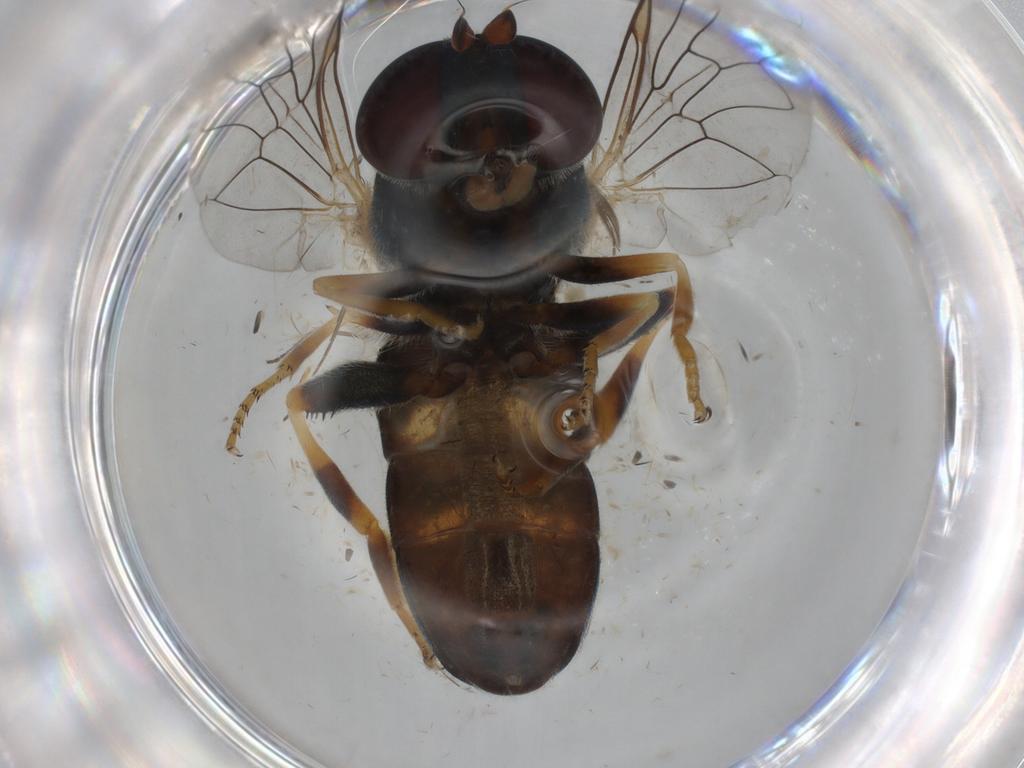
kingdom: Animalia
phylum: Arthropoda
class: Insecta
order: Diptera
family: Syrphidae
